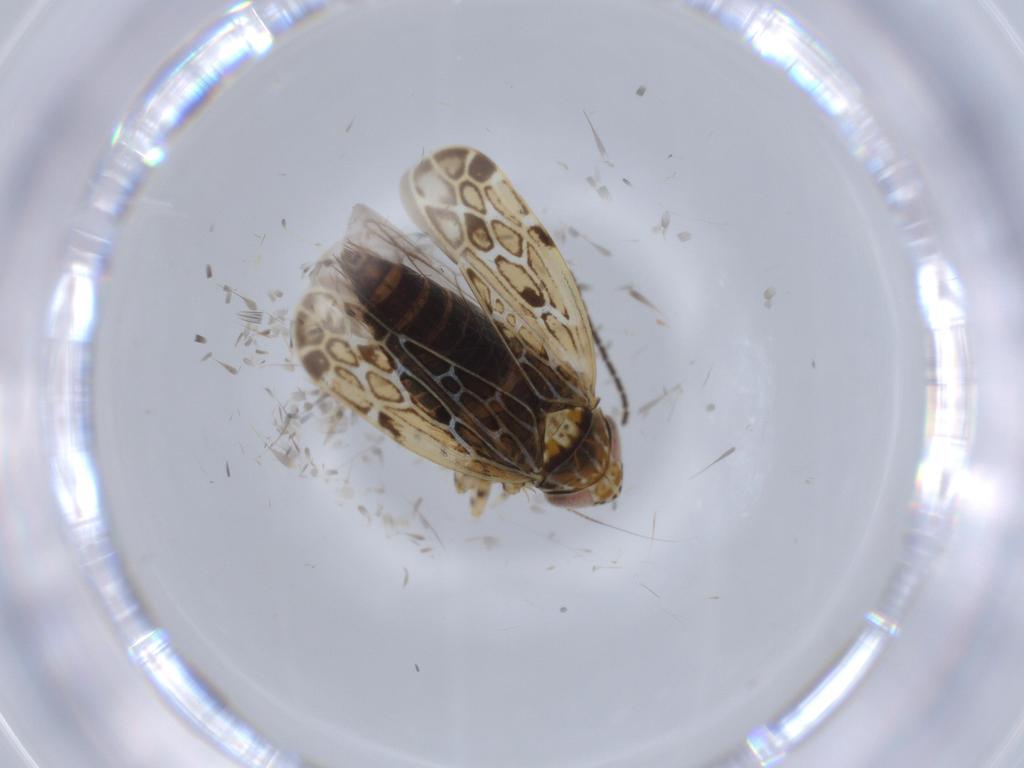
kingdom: Animalia
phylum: Arthropoda
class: Insecta
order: Hemiptera
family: Cicadellidae
